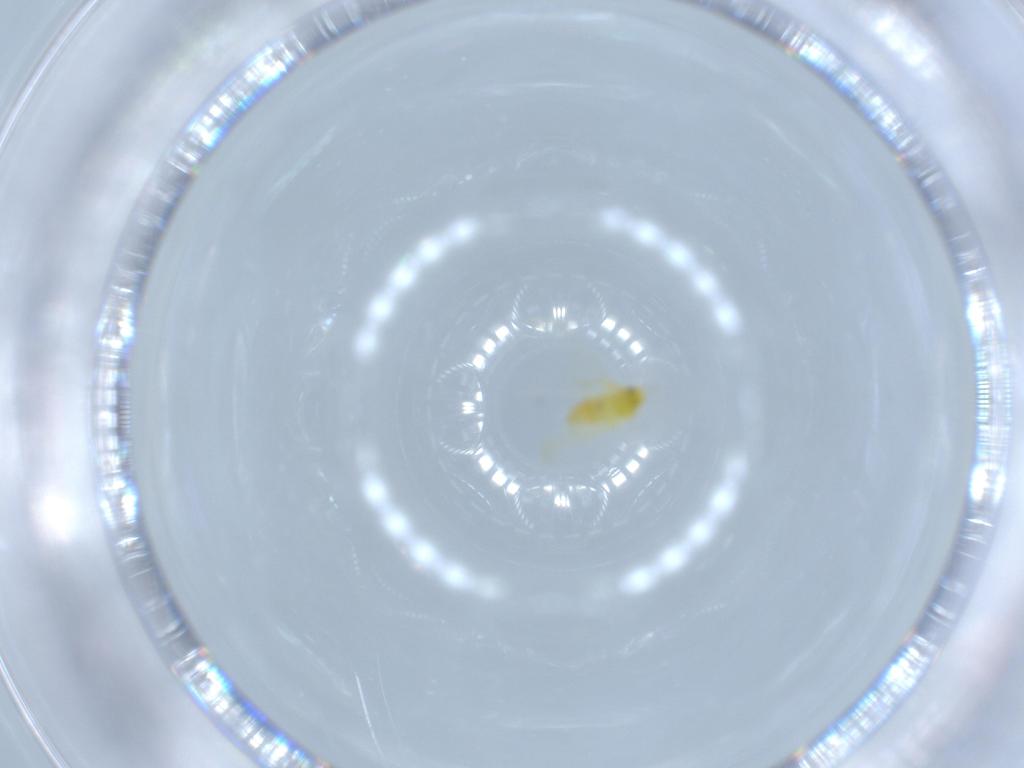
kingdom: Animalia
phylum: Arthropoda
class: Insecta
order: Hemiptera
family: Aleyrodidae
